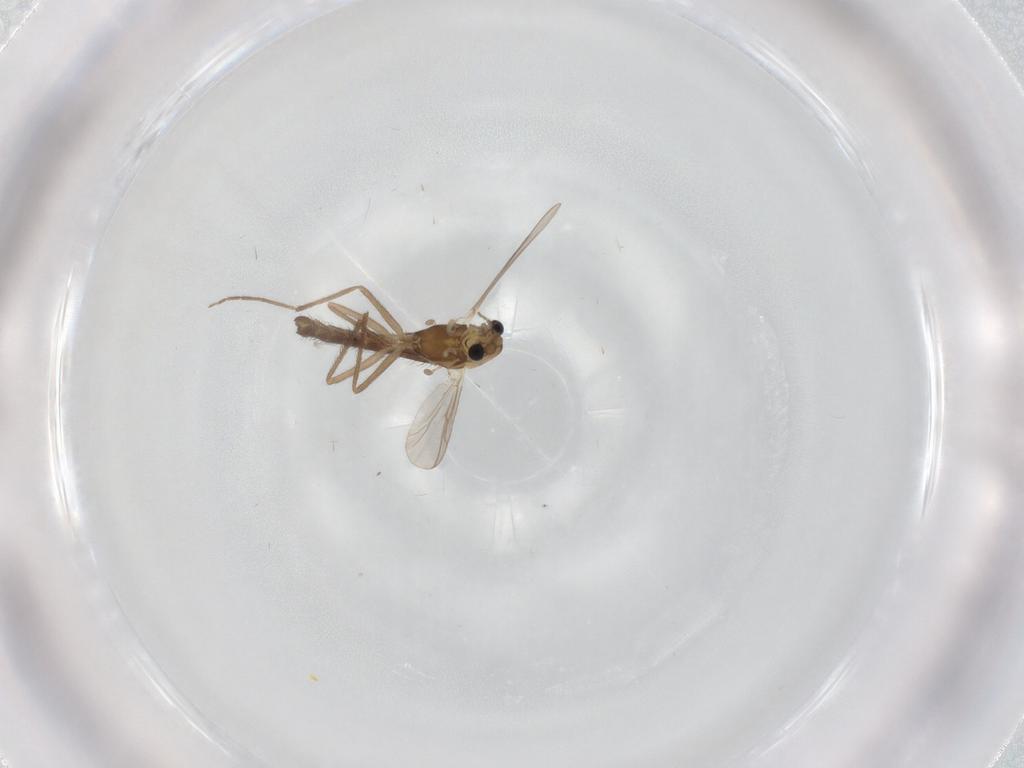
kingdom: Animalia
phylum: Arthropoda
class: Insecta
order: Diptera
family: Chironomidae
